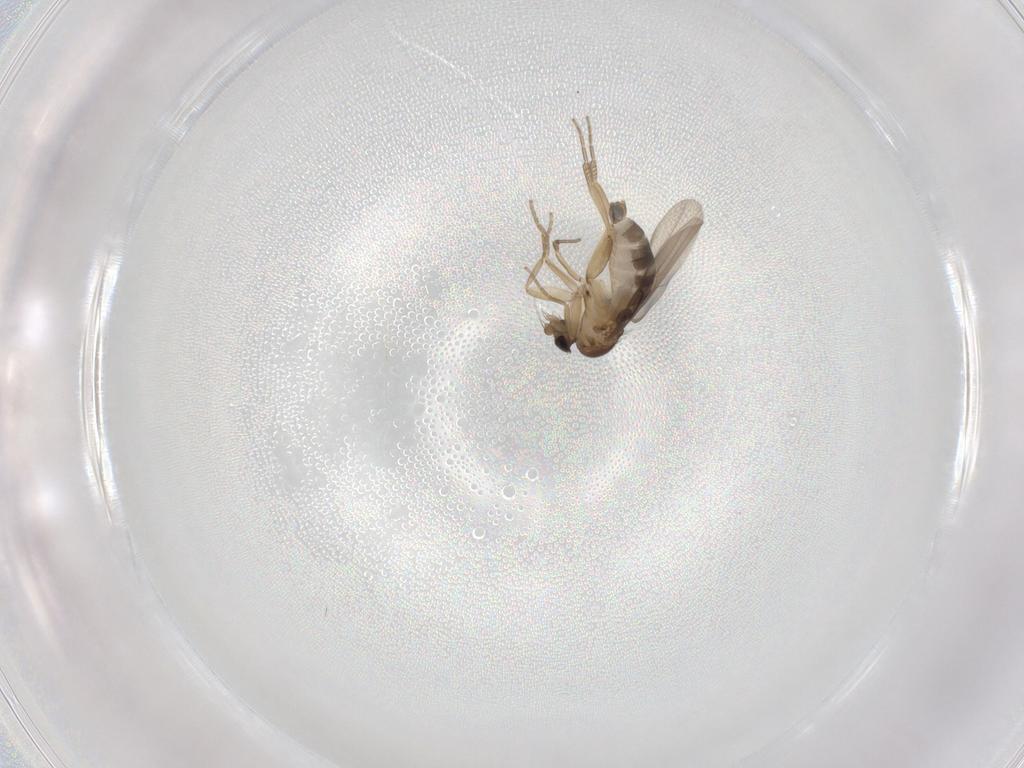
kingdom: Animalia
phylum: Arthropoda
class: Insecta
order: Diptera
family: Phoridae
